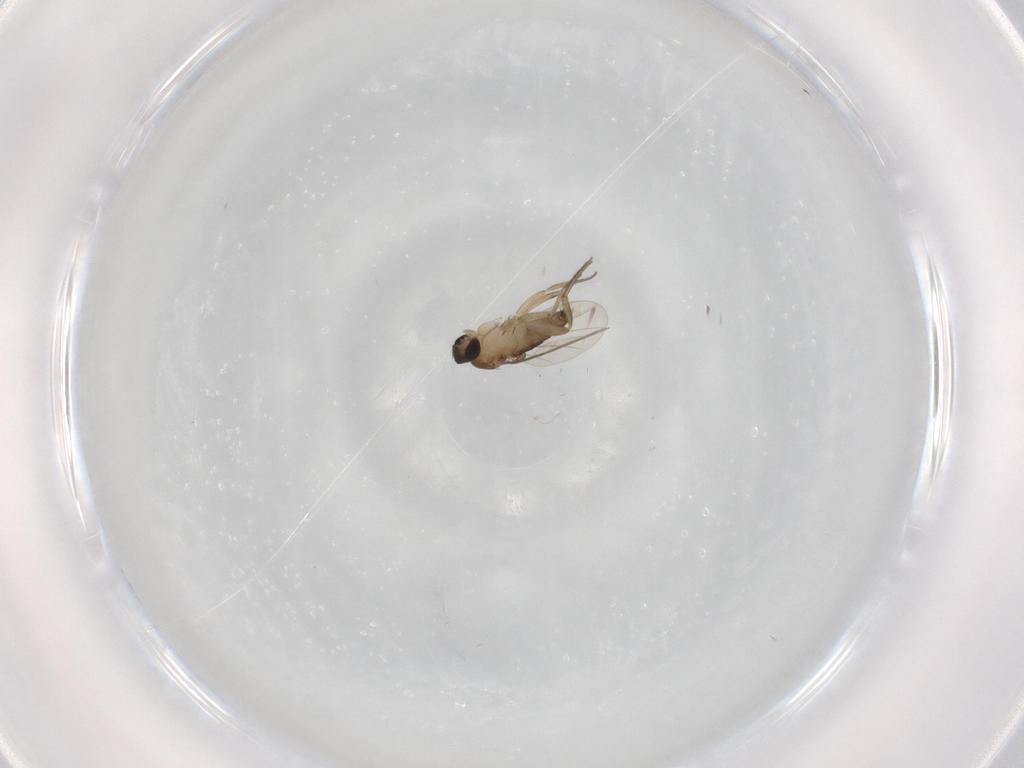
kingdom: Animalia
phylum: Arthropoda
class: Insecta
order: Diptera
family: Phoridae
